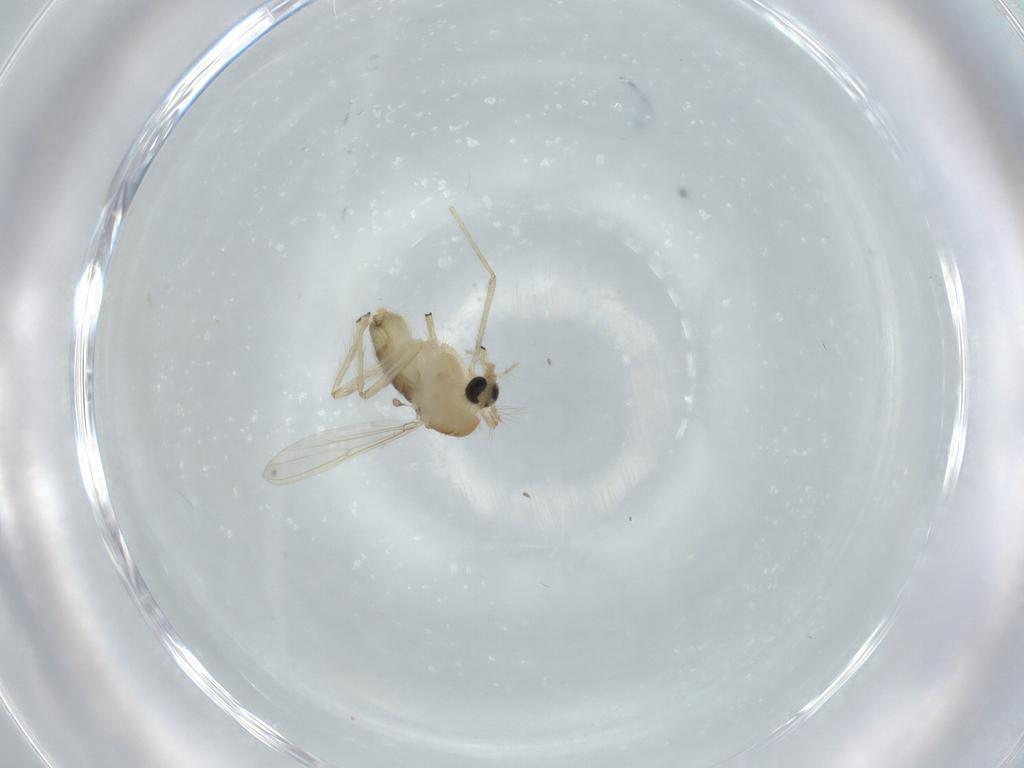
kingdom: Animalia
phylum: Arthropoda
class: Insecta
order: Diptera
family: Chironomidae
